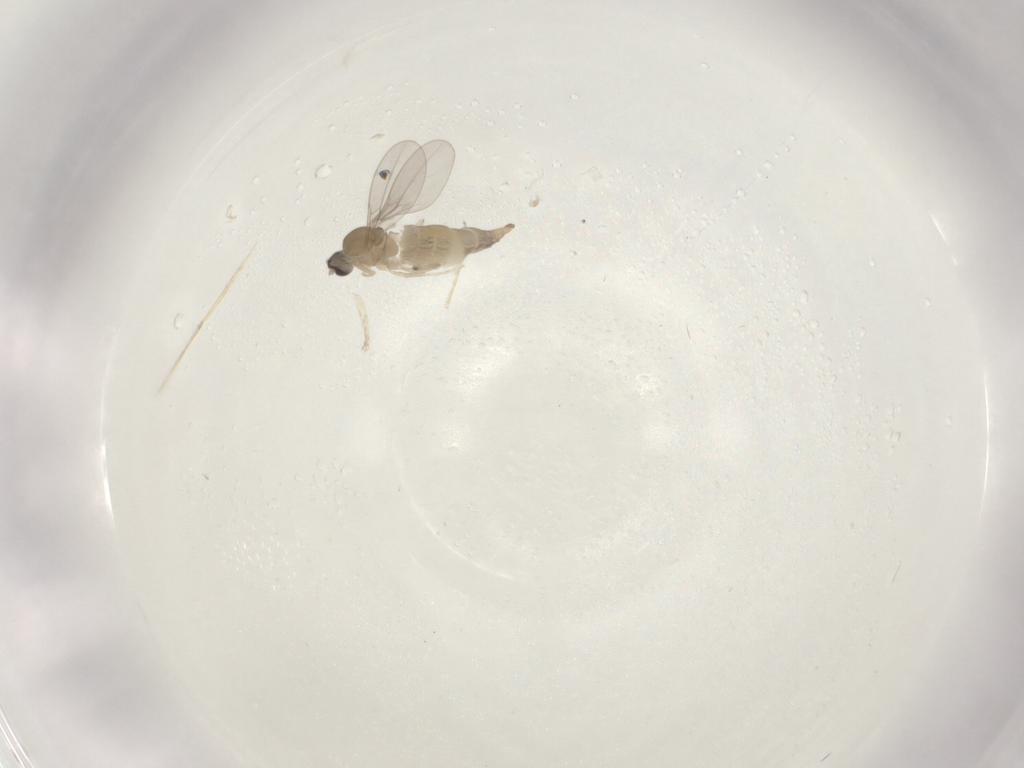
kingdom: Animalia
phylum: Arthropoda
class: Insecta
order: Diptera
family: Cecidomyiidae
